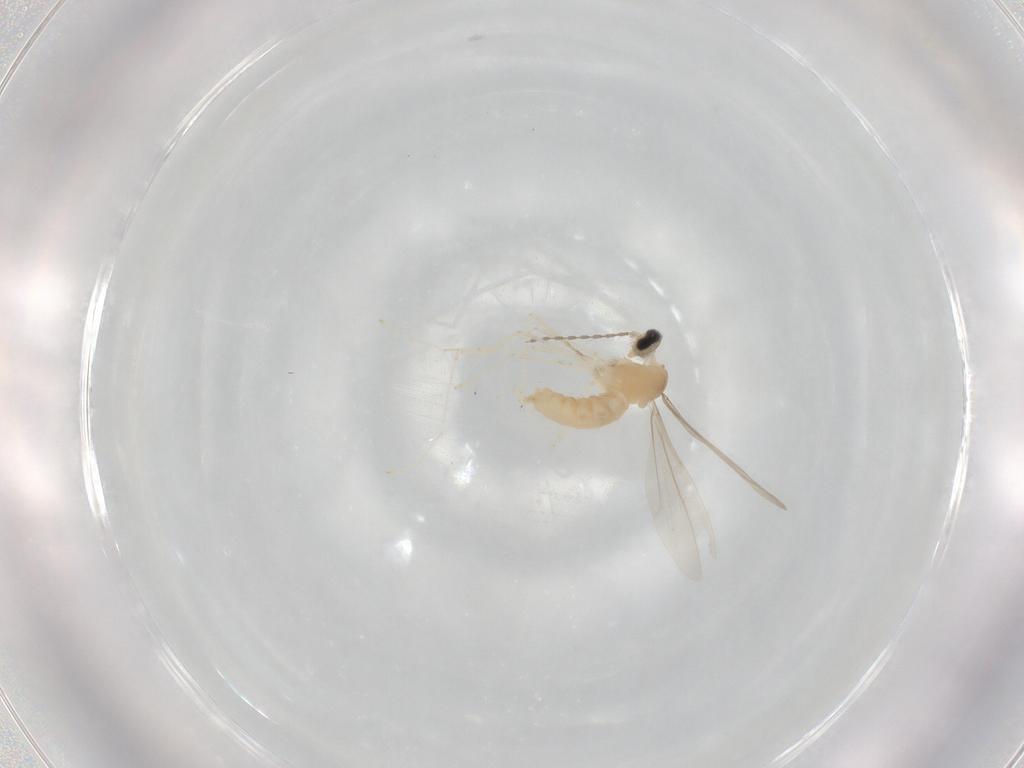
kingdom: Animalia
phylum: Arthropoda
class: Insecta
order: Diptera
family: Cecidomyiidae
